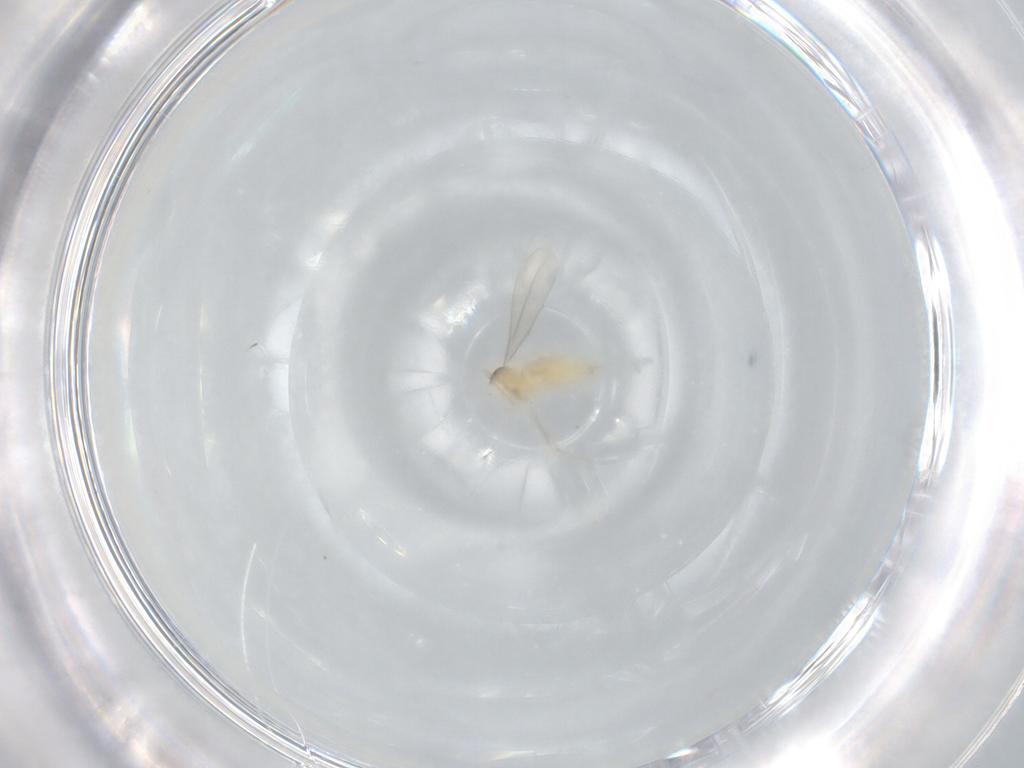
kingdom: Animalia
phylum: Arthropoda
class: Insecta
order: Diptera
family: Cecidomyiidae
